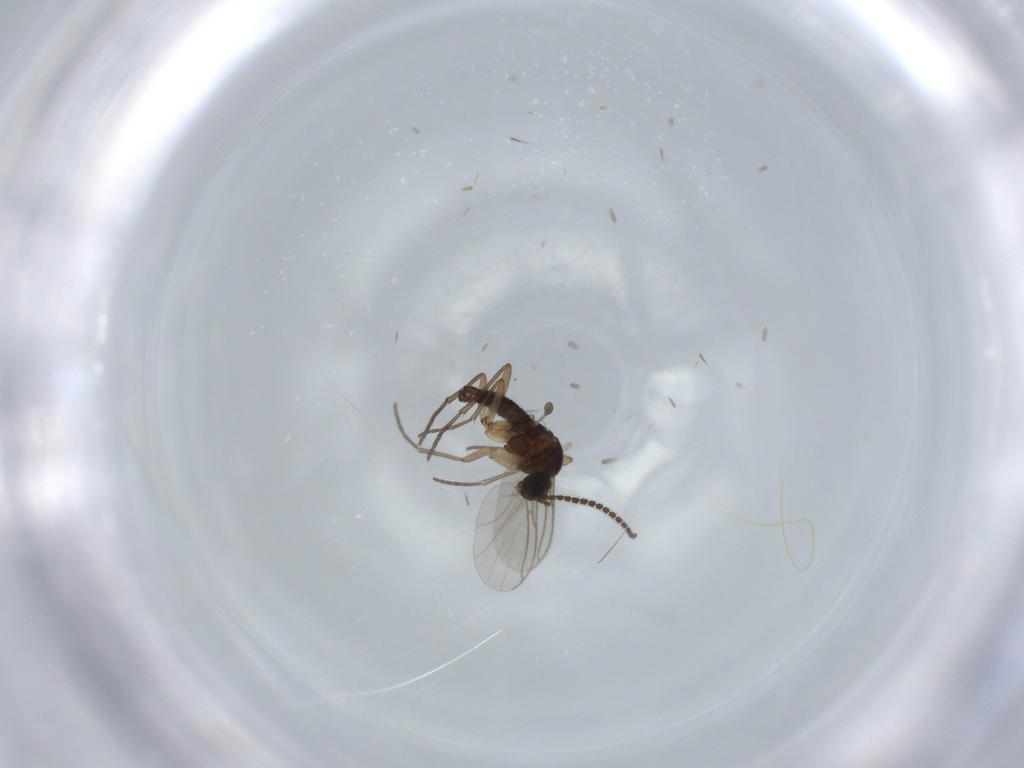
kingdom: Animalia
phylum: Arthropoda
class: Insecta
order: Diptera
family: Sciaridae
